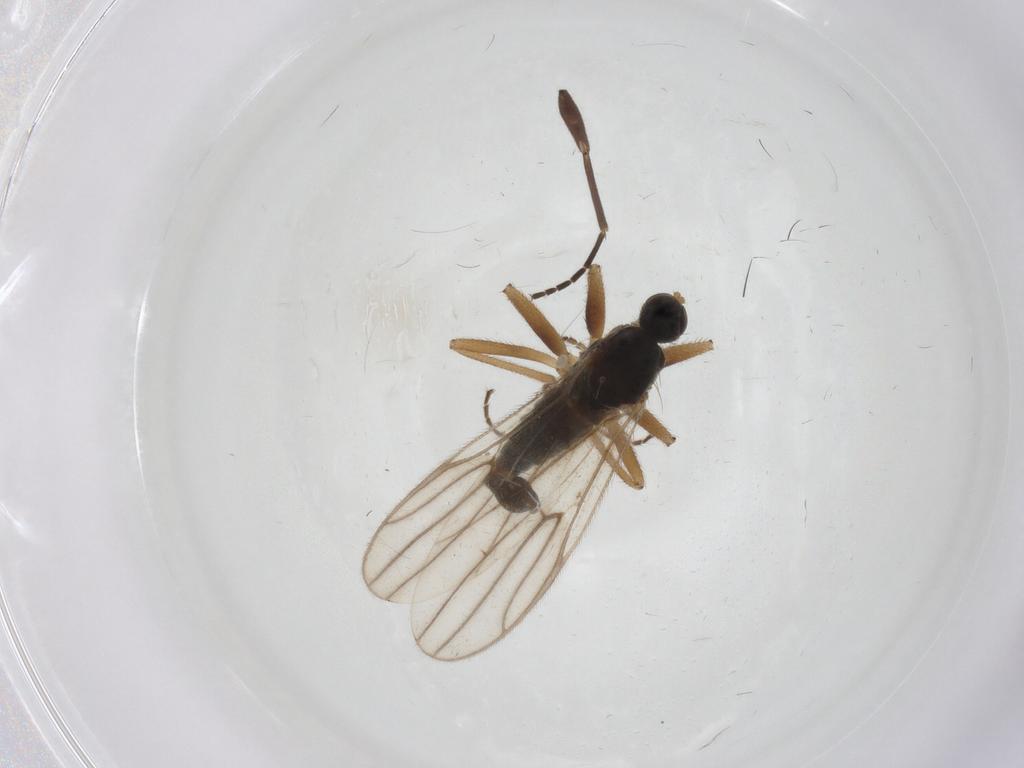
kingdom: Animalia
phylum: Arthropoda
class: Insecta
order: Diptera
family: Hybotidae
